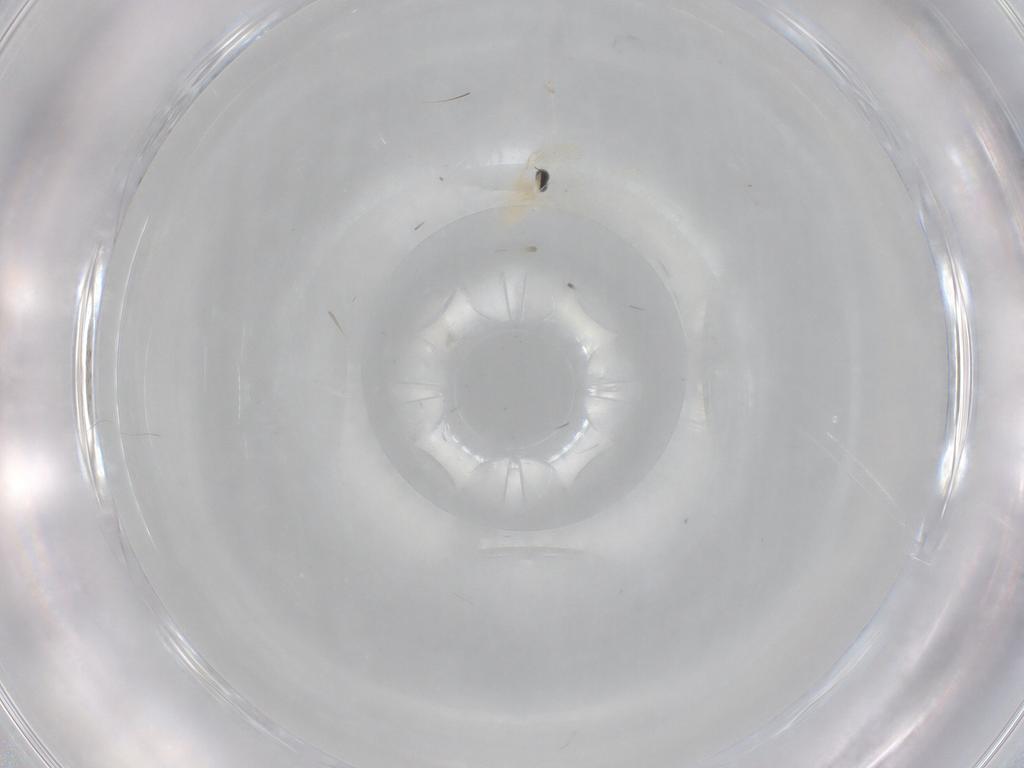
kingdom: Animalia
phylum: Arthropoda
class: Insecta
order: Diptera
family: Cecidomyiidae
